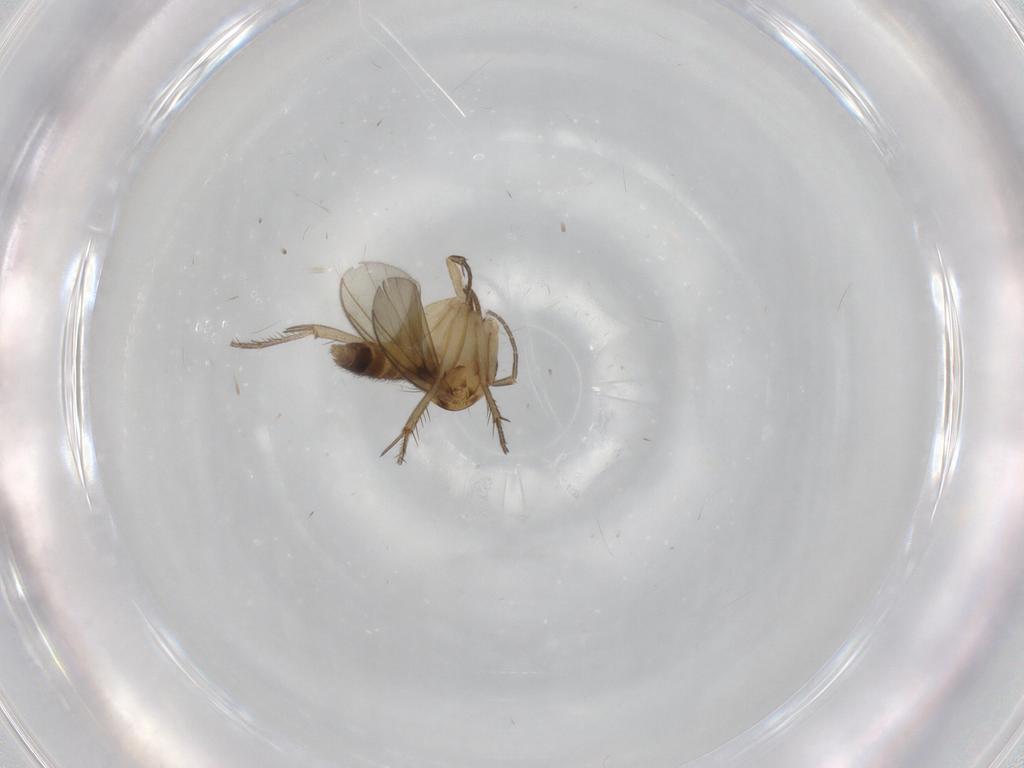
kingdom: Animalia
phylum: Arthropoda
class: Insecta
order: Diptera
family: Mycetophilidae
